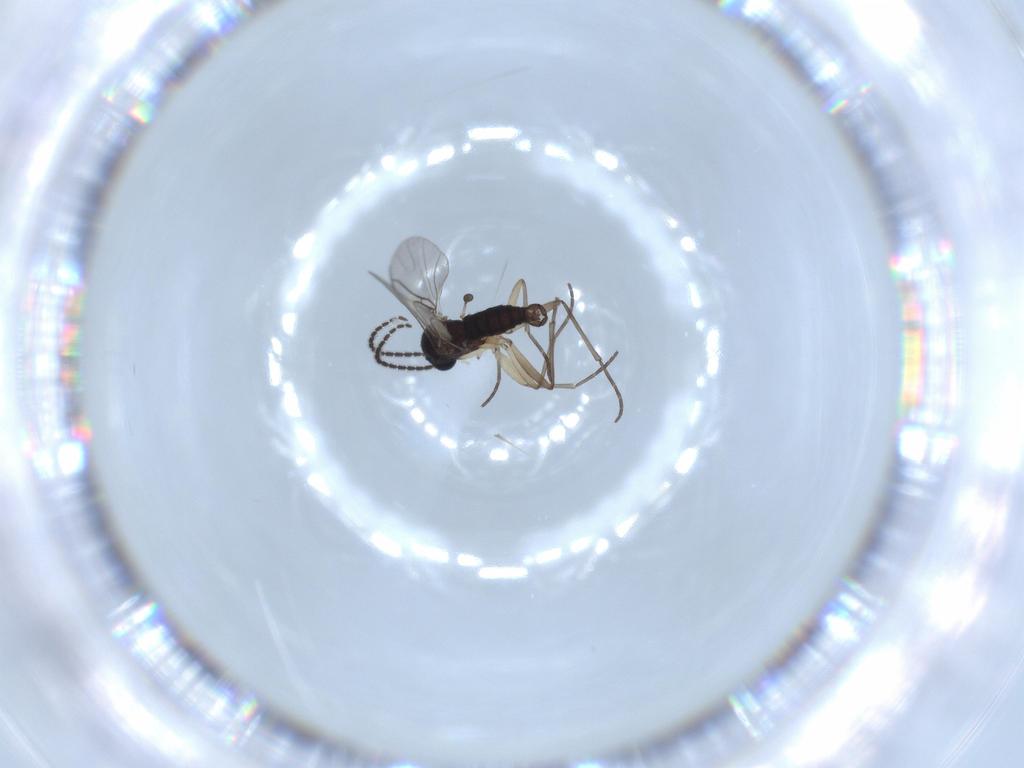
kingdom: Animalia
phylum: Arthropoda
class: Insecta
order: Diptera
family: Sciaridae
